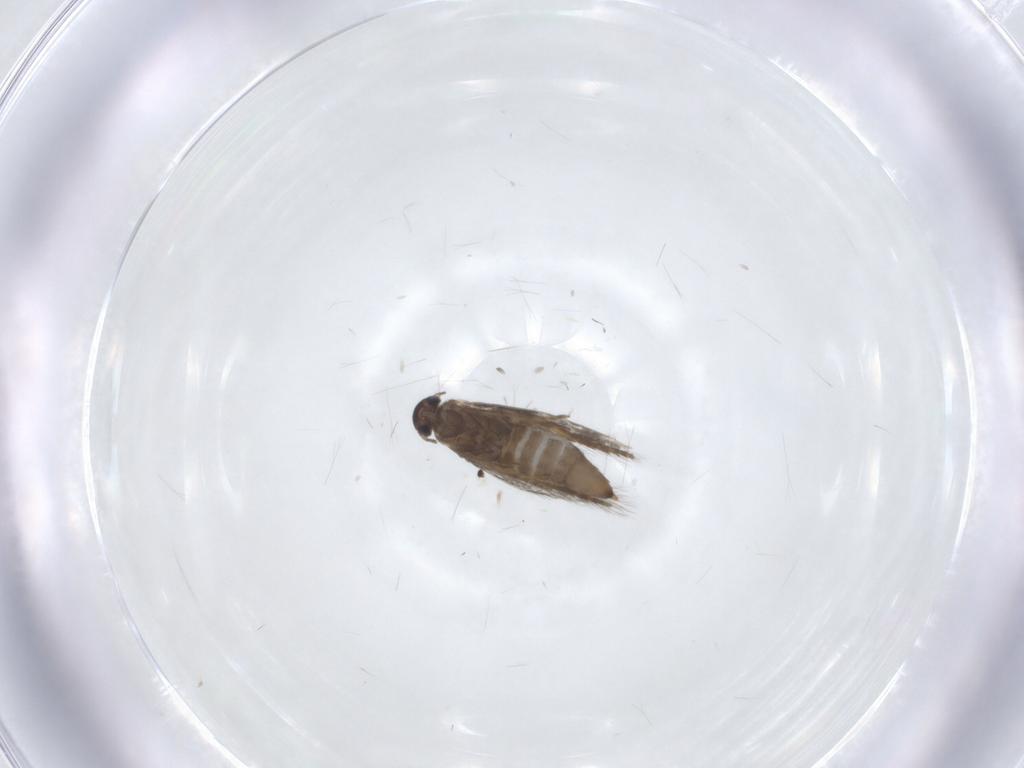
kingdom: Animalia
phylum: Arthropoda
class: Insecta
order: Lepidoptera
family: Heliozelidae
